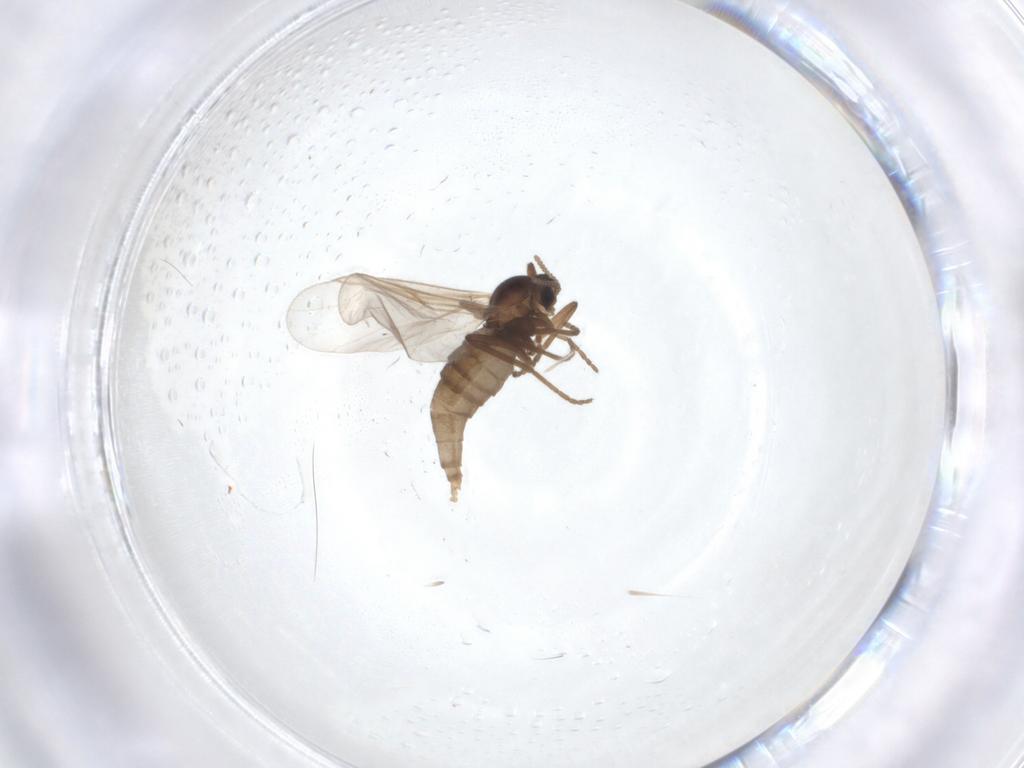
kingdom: Animalia
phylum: Arthropoda
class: Insecta
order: Diptera
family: Cecidomyiidae
